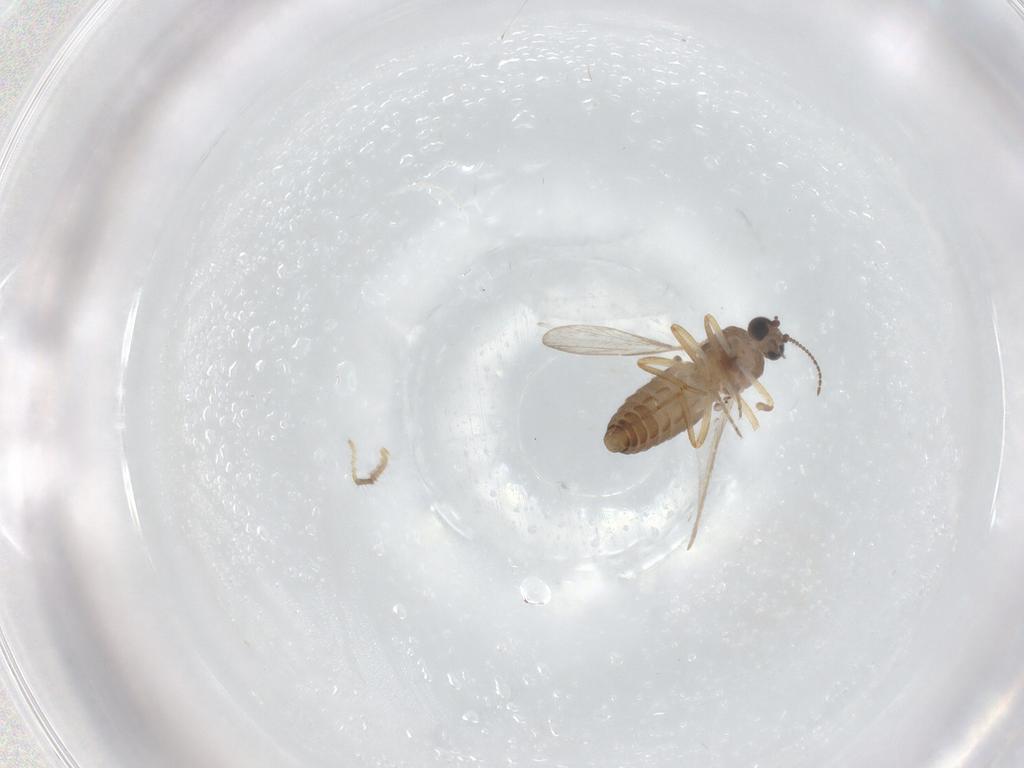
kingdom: Animalia
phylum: Arthropoda
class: Insecta
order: Diptera
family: Ceratopogonidae
